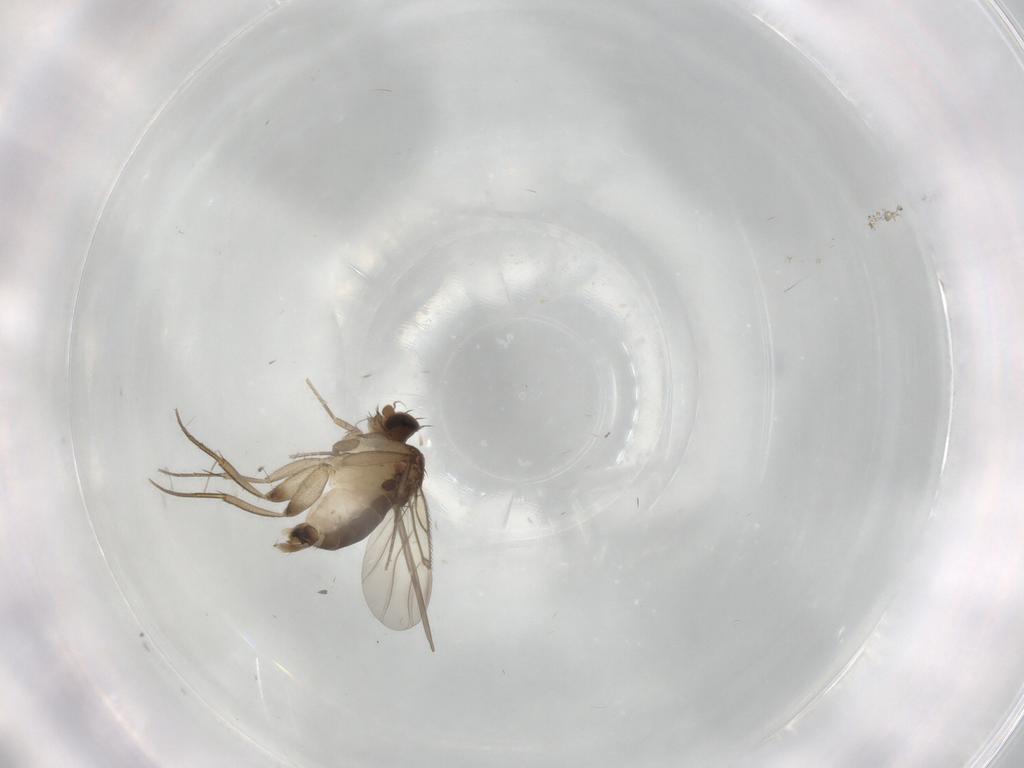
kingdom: Animalia
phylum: Arthropoda
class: Insecta
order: Diptera
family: Phoridae
